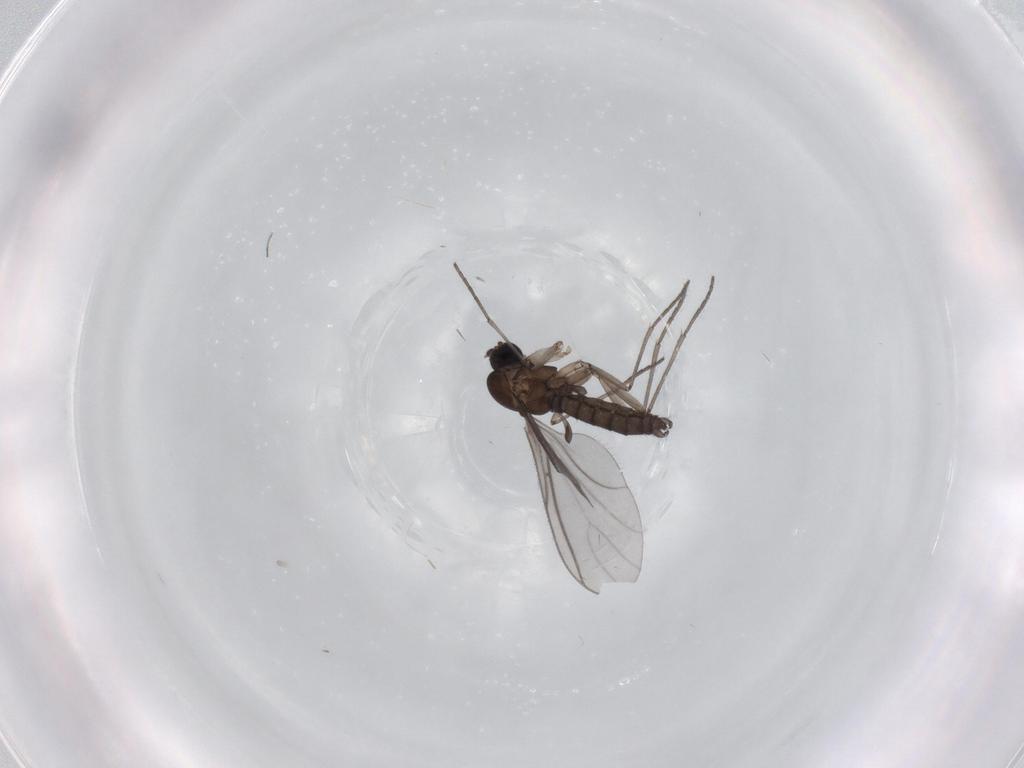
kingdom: Animalia
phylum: Arthropoda
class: Insecta
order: Diptera
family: Sciaridae
